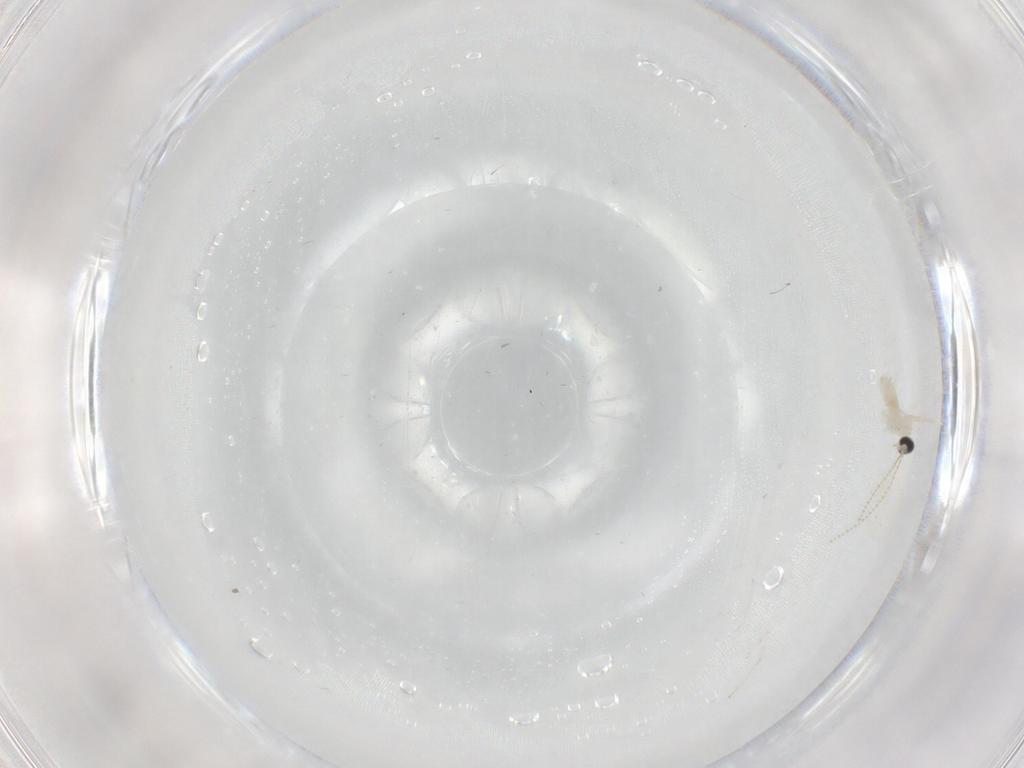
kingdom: Animalia
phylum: Arthropoda
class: Insecta
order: Diptera
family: Cecidomyiidae
